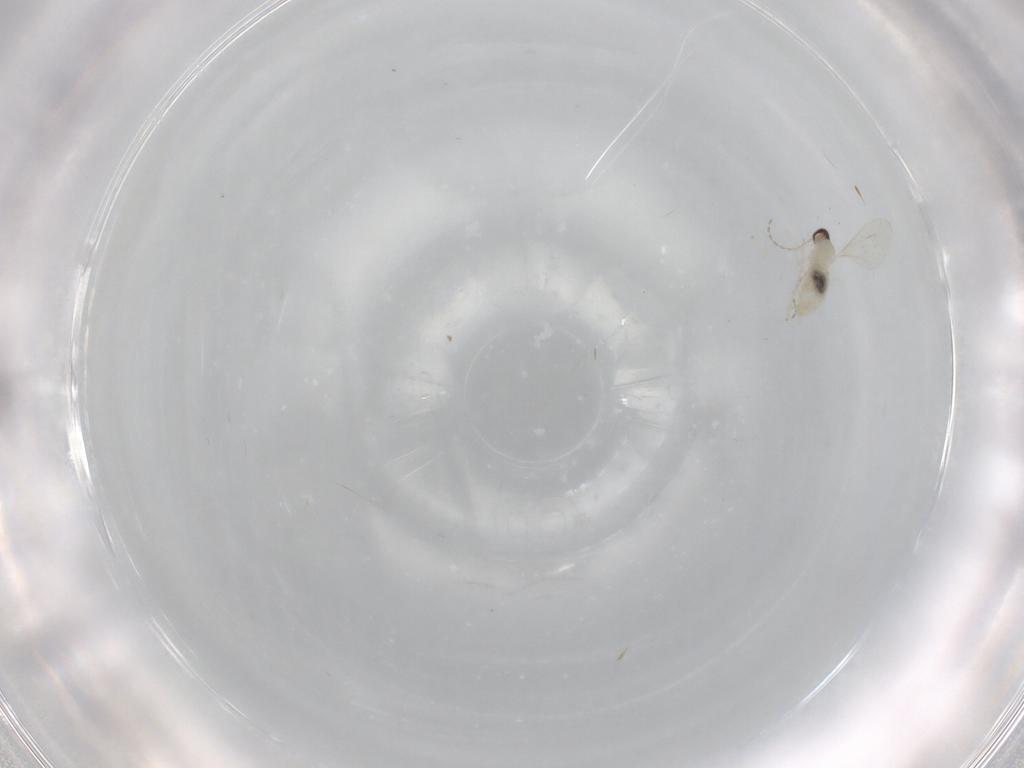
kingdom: Animalia
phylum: Arthropoda
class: Insecta
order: Diptera
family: Cecidomyiidae
